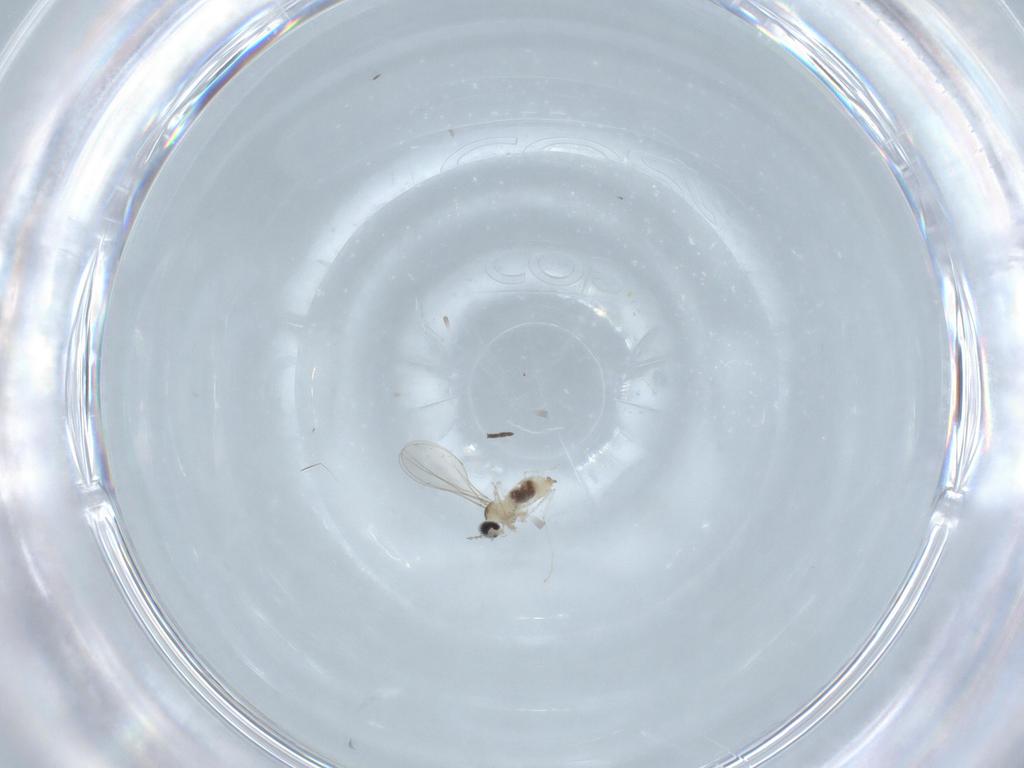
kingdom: Animalia
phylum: Arthropoda
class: Insecta
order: Diptera
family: Cecidomyiidae
